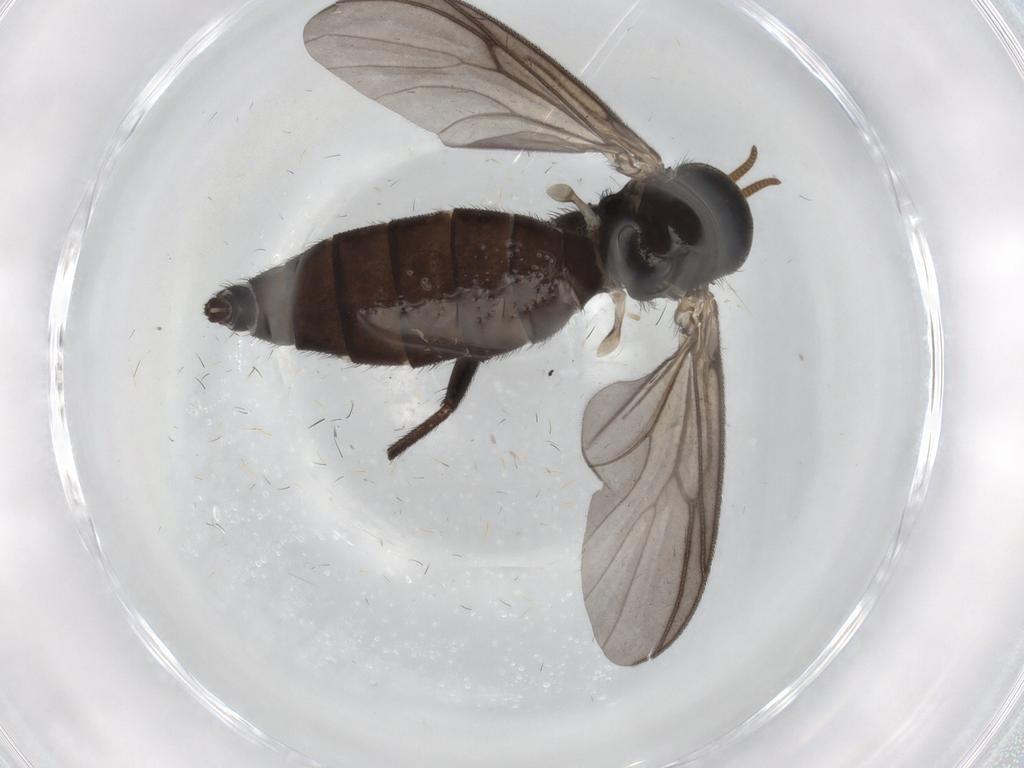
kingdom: Animalia
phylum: Arthropoda
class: Insecta
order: Diptera
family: Mycetophilidae
